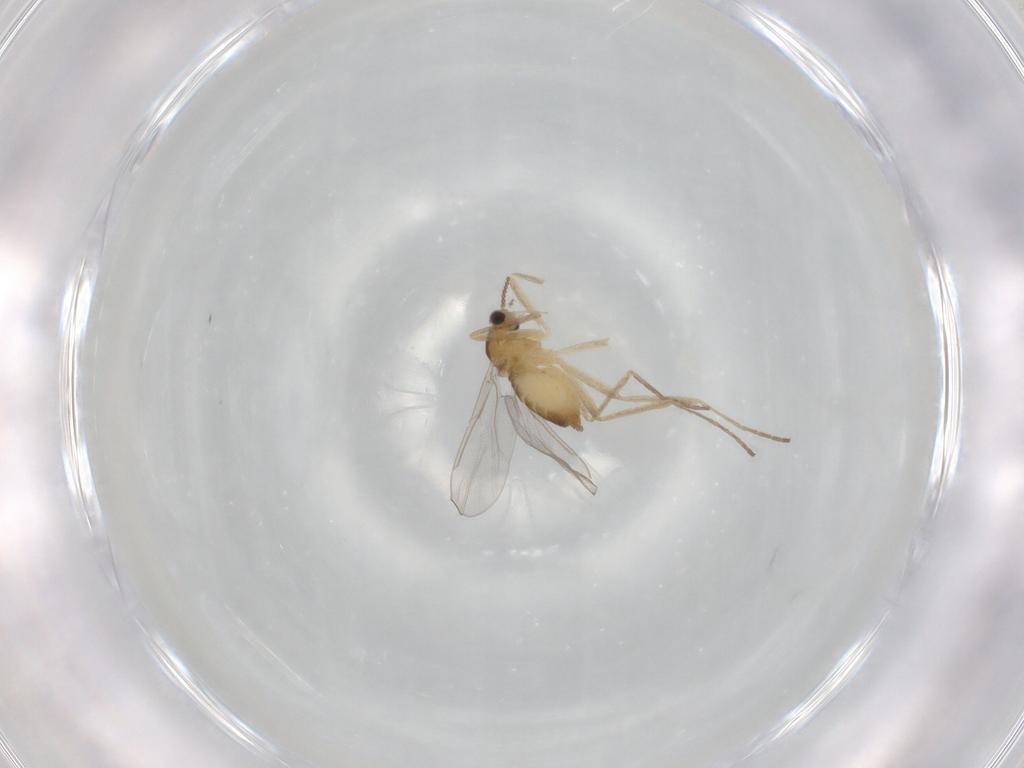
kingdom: Animalia
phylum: Arthropoda
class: Insecta
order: Diptera
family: Cecidomyiidae
